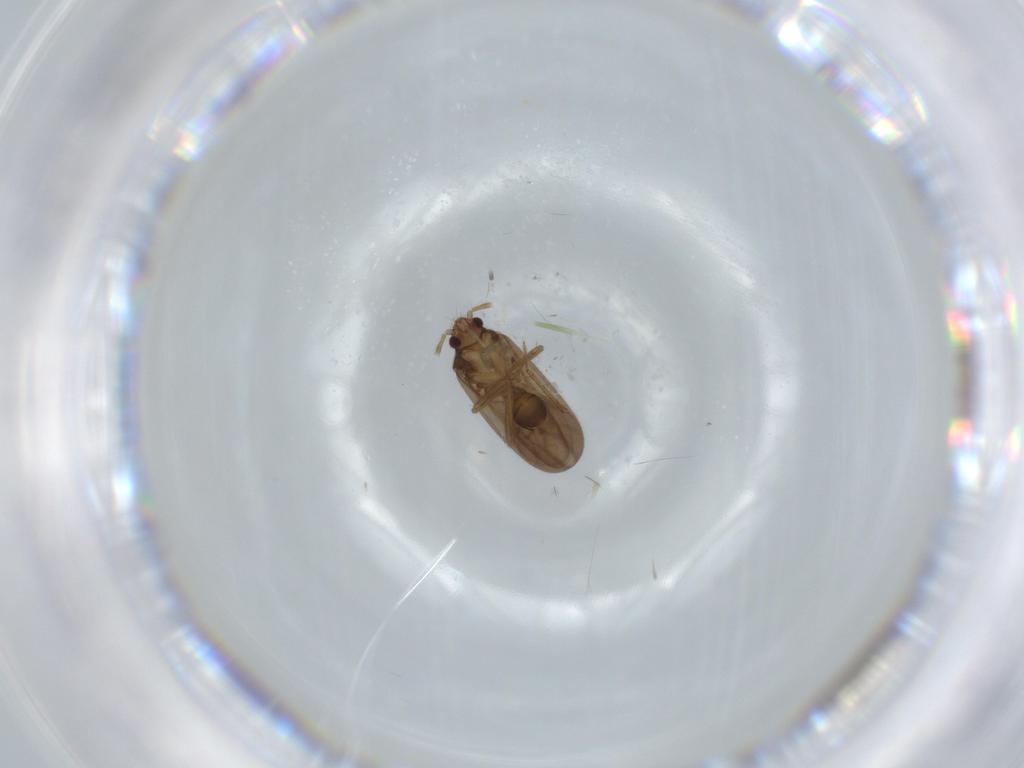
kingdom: Animalia
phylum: Arthropoda
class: Insecta
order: Hemiptera
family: Ceratocombidae
